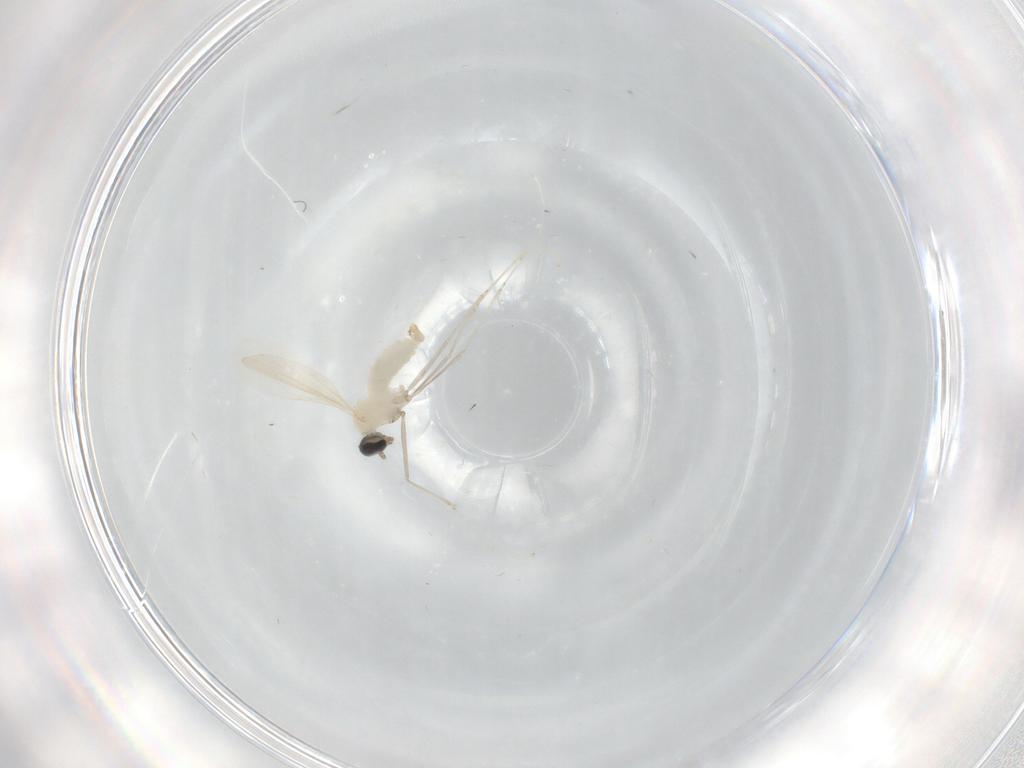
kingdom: Animalia
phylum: Arthropoda
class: Insecta
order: Diptera
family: Cecidomyiidae
